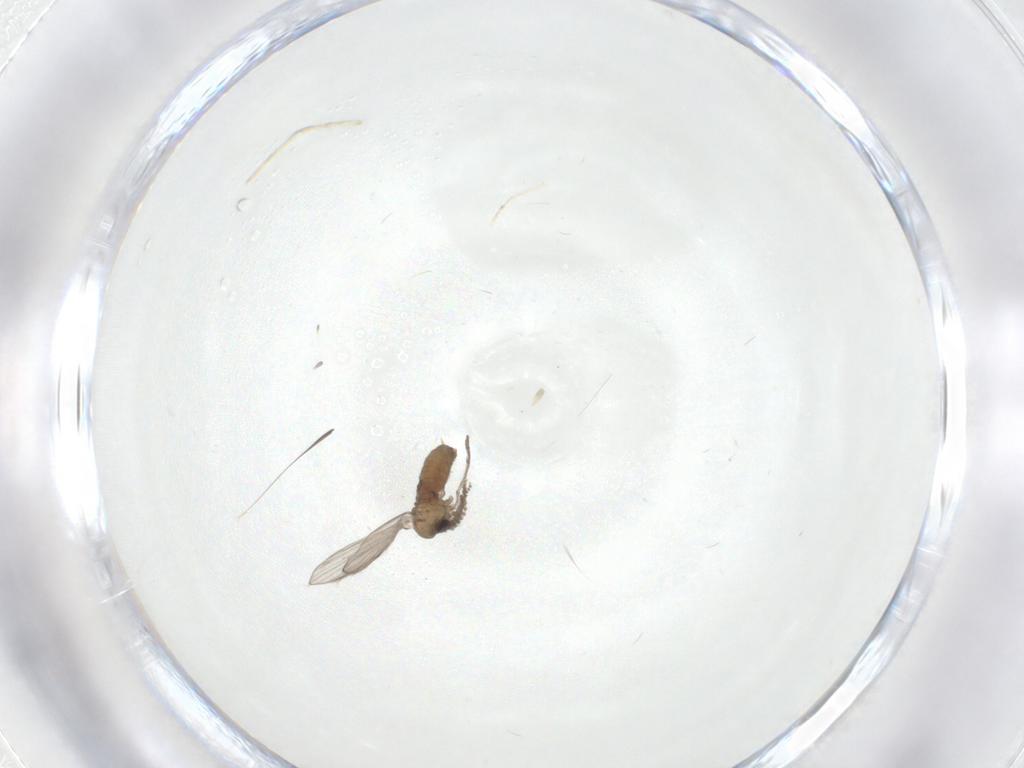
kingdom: Animalia
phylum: Arthropoda
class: Insecta
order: Diptera
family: Psychodidae
